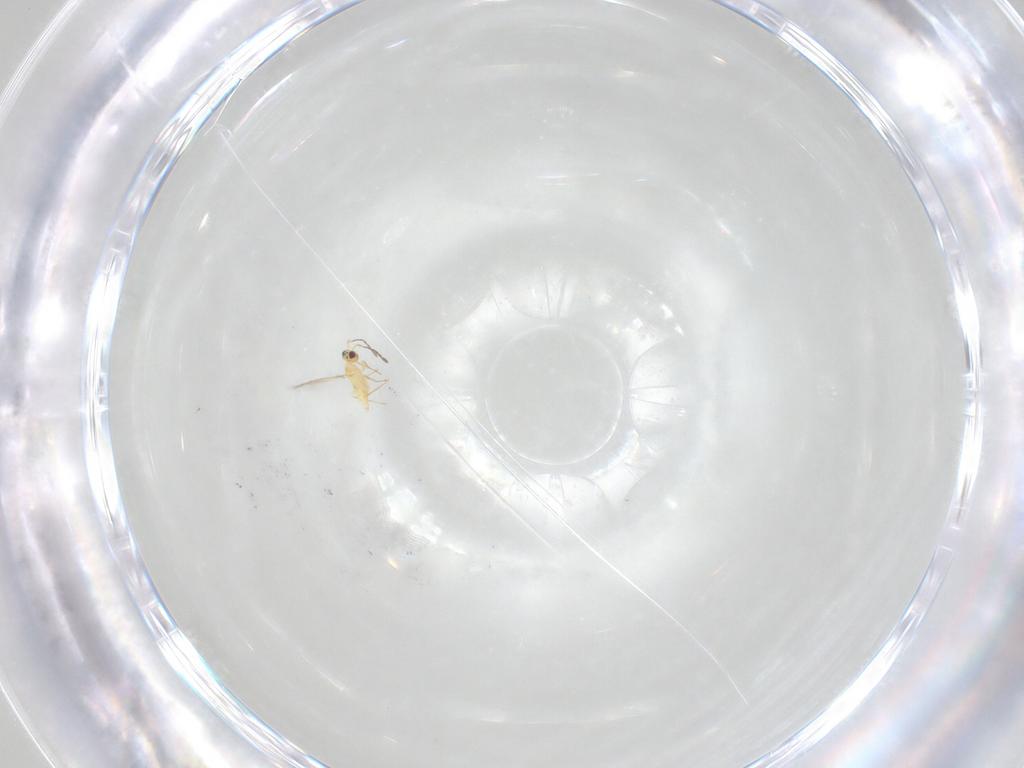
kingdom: Animalia
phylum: Arthropoda
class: Insecta
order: Hymenoptera
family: Mymaridae
